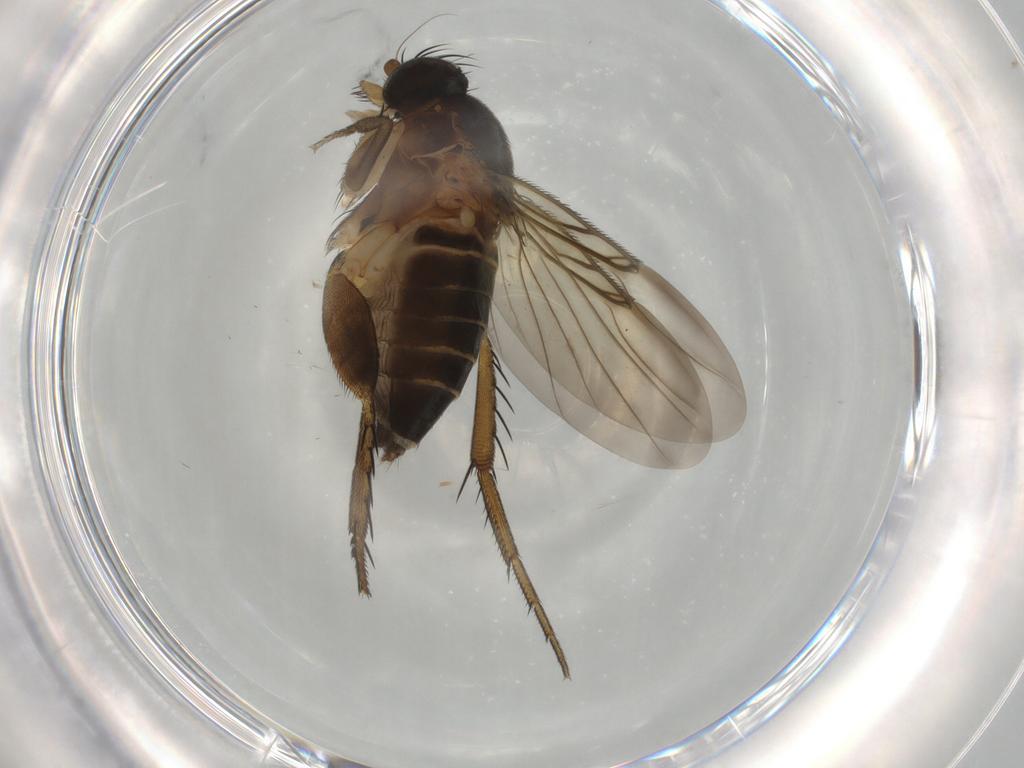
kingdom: Animalia
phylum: Arthropoda
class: Insecta
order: Diptera
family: Phoridae
